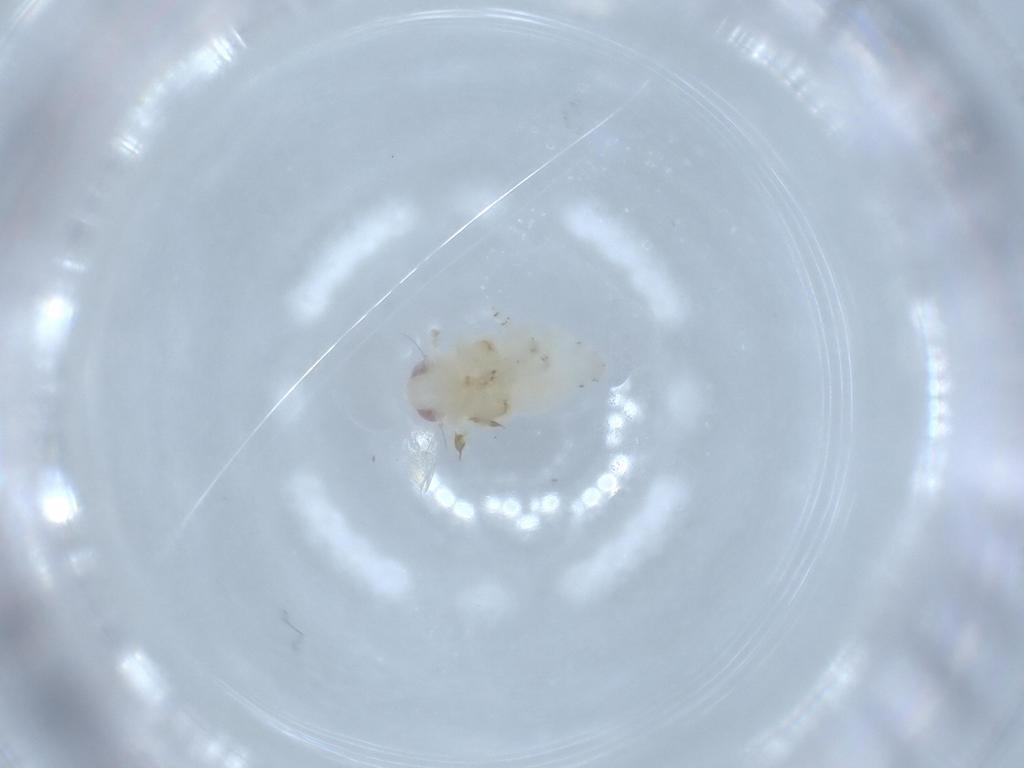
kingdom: Animalia
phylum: Arthropoda
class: Insecta
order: Hemiptera
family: Nogodinidae
